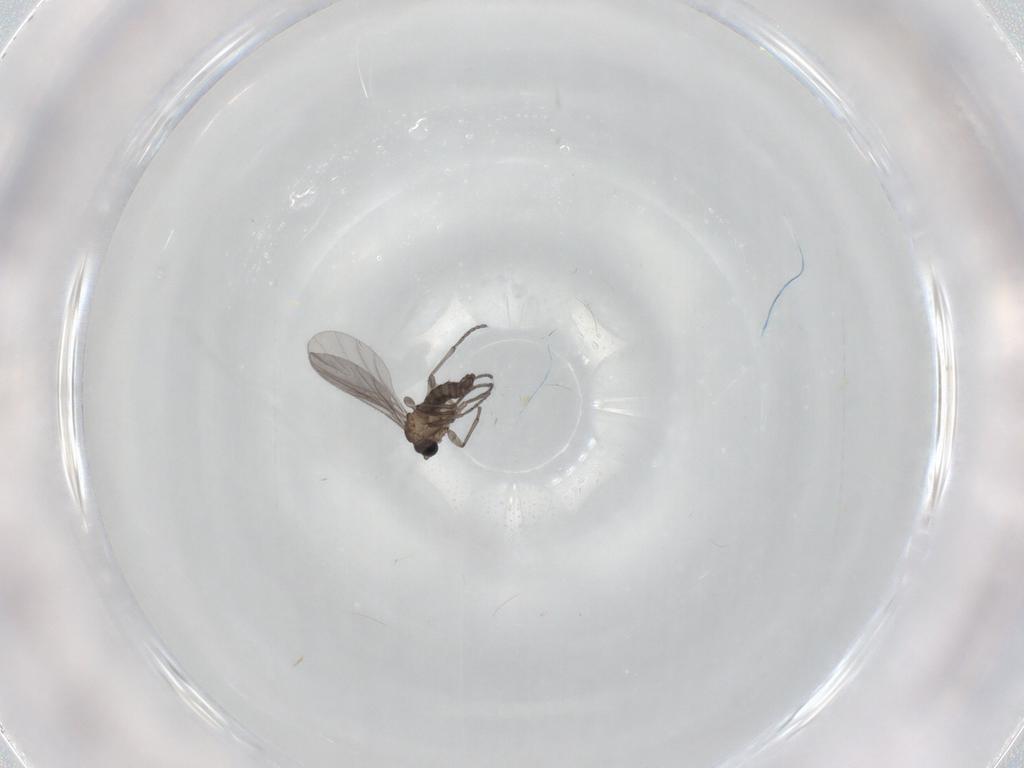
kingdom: Animalia
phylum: Arthropoda
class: Insecta
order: Diptera
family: Sciaridae
